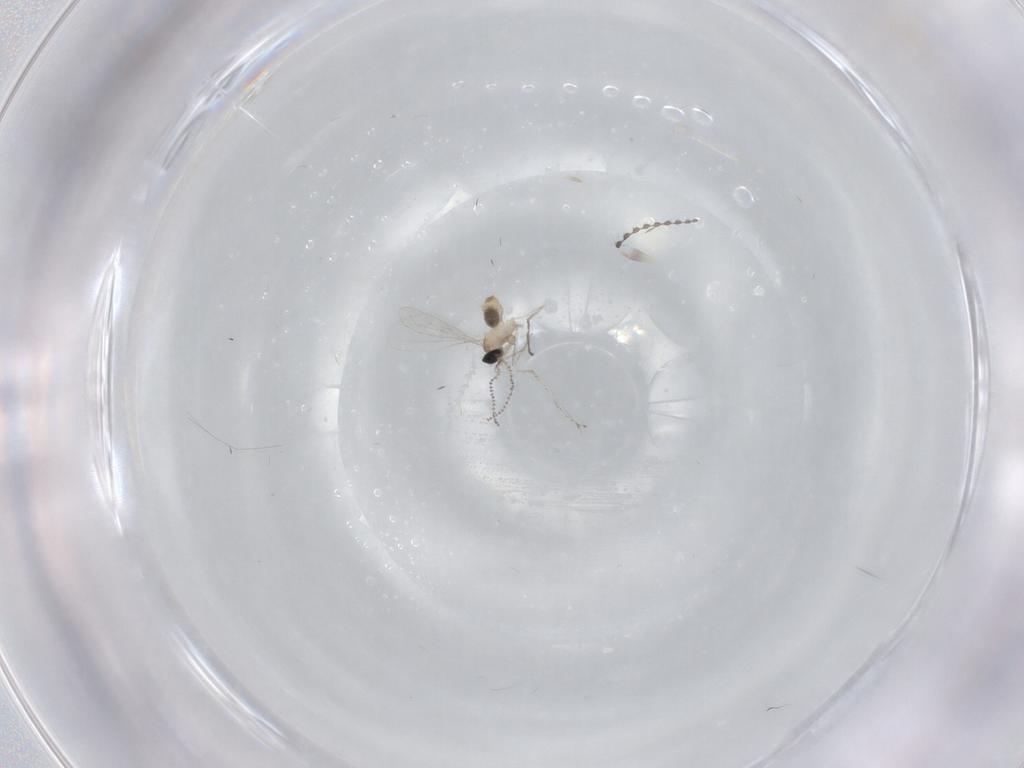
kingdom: Animalia
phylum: Arthropoda
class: Insecta
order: Diptera
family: Cecidomyiidae
